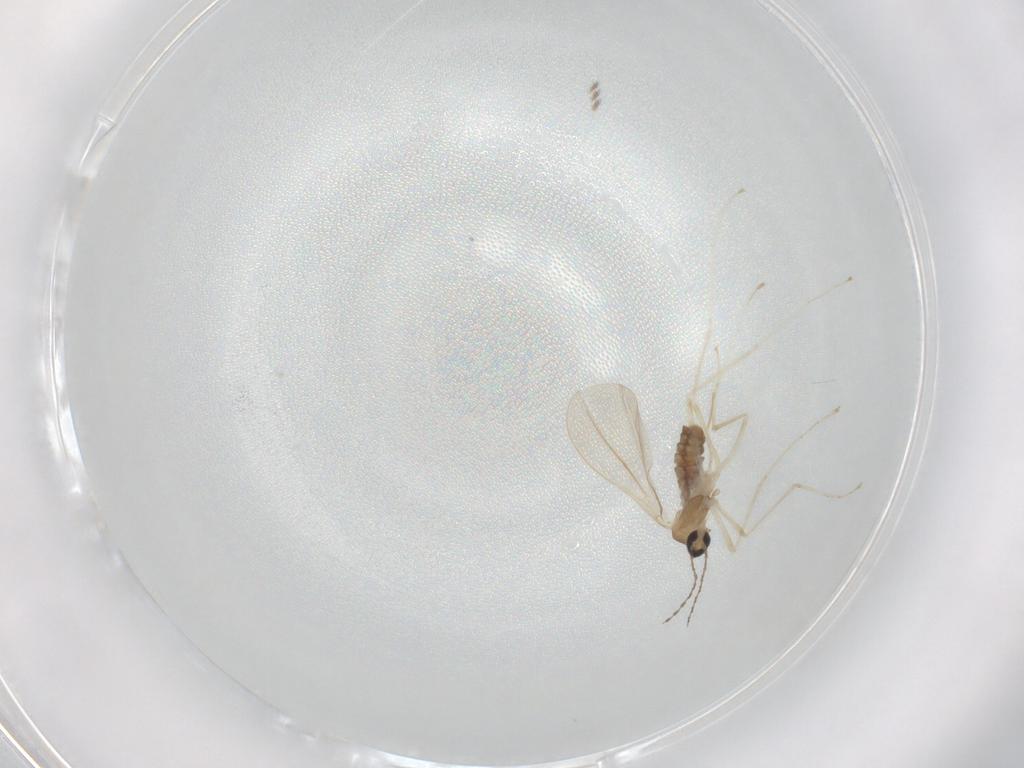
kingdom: Animalia
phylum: Arthropoda
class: Insecta
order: Diptera
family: Cecidomyiidae
